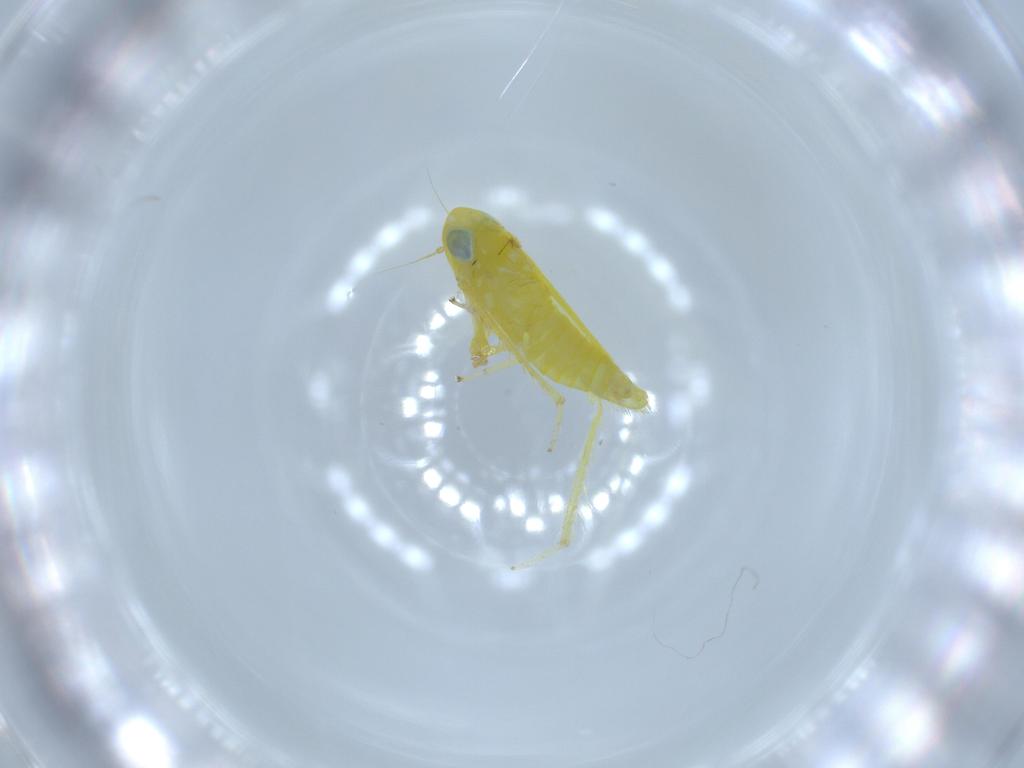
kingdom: Animalia
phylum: Arthropoda
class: Insecta
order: Hemiptera
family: Cicadellidae
